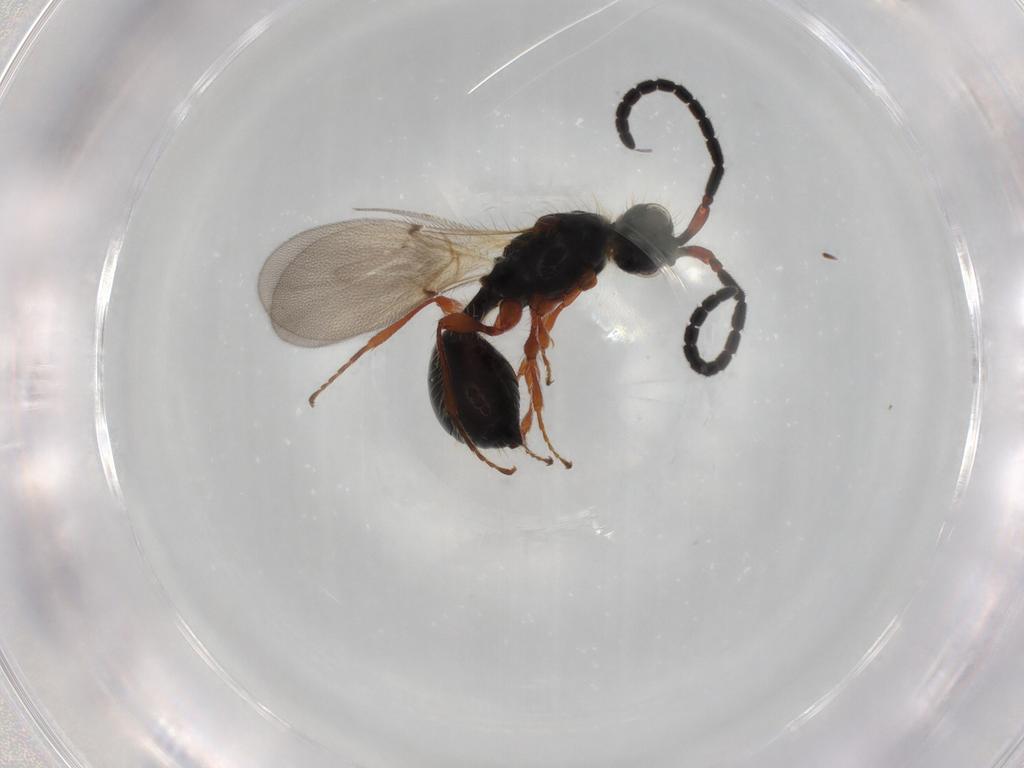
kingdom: Animalia
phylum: Arthropoda
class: Insecta
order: Hymenoptera
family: Diapriidae
